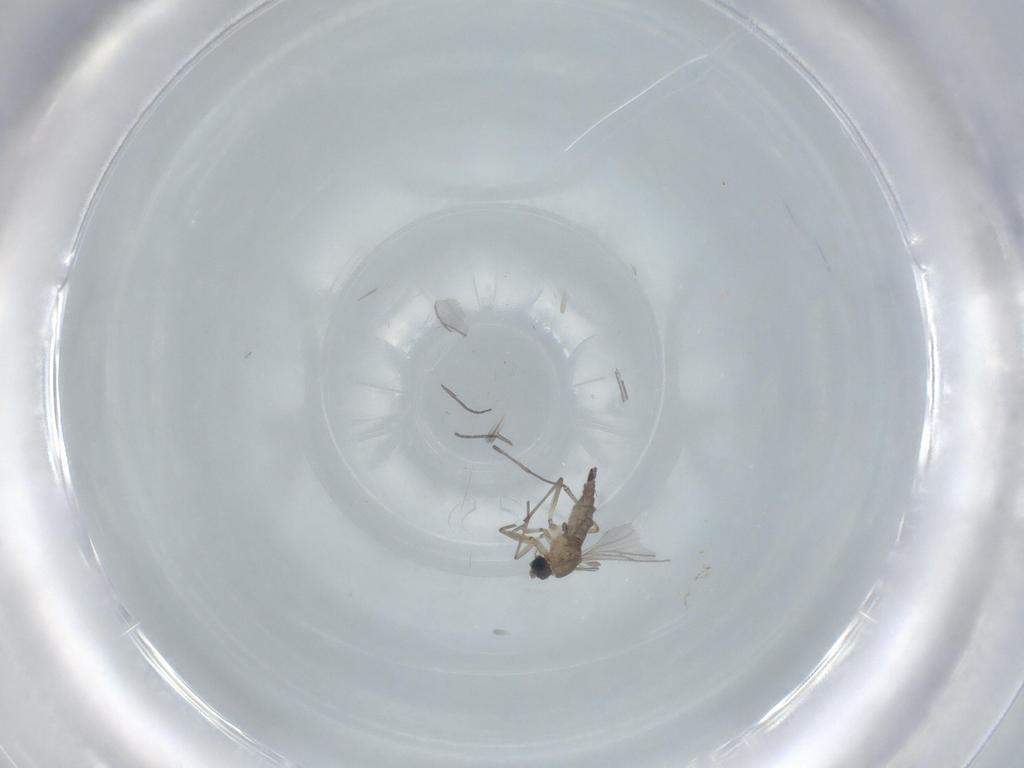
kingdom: Animalia
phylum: Arthropoda
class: Insecta
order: Diptera
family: Sciaridae
